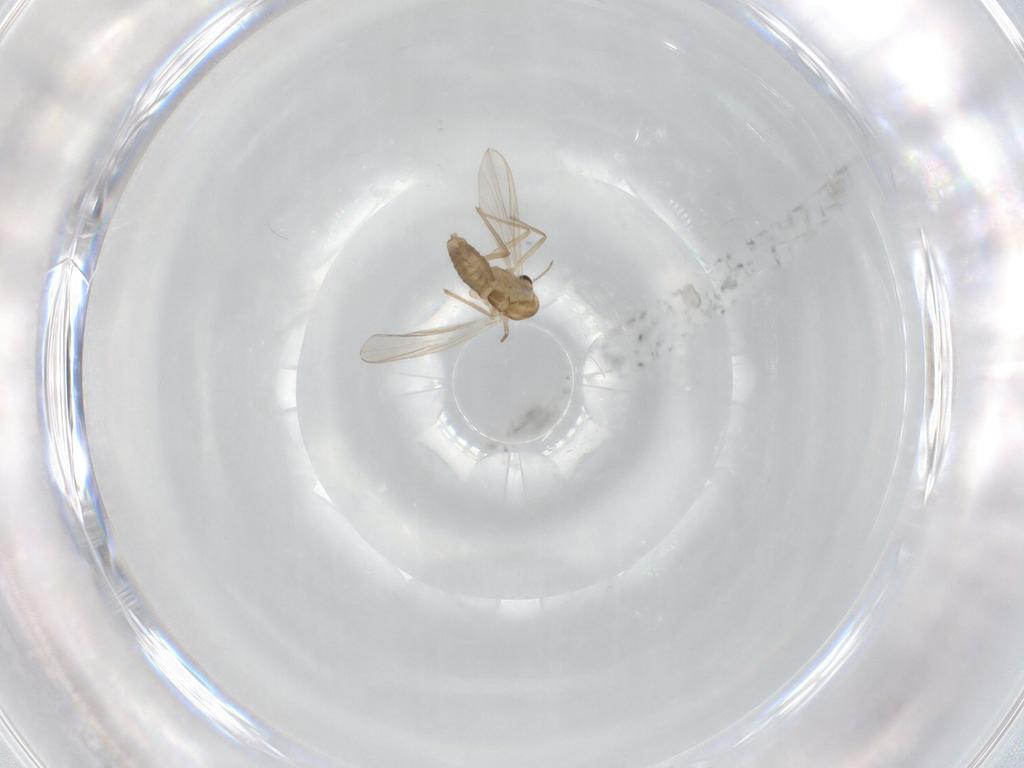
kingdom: Animalia
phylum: Arthropoda
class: Insecta
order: Diptera
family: Chironomidae
